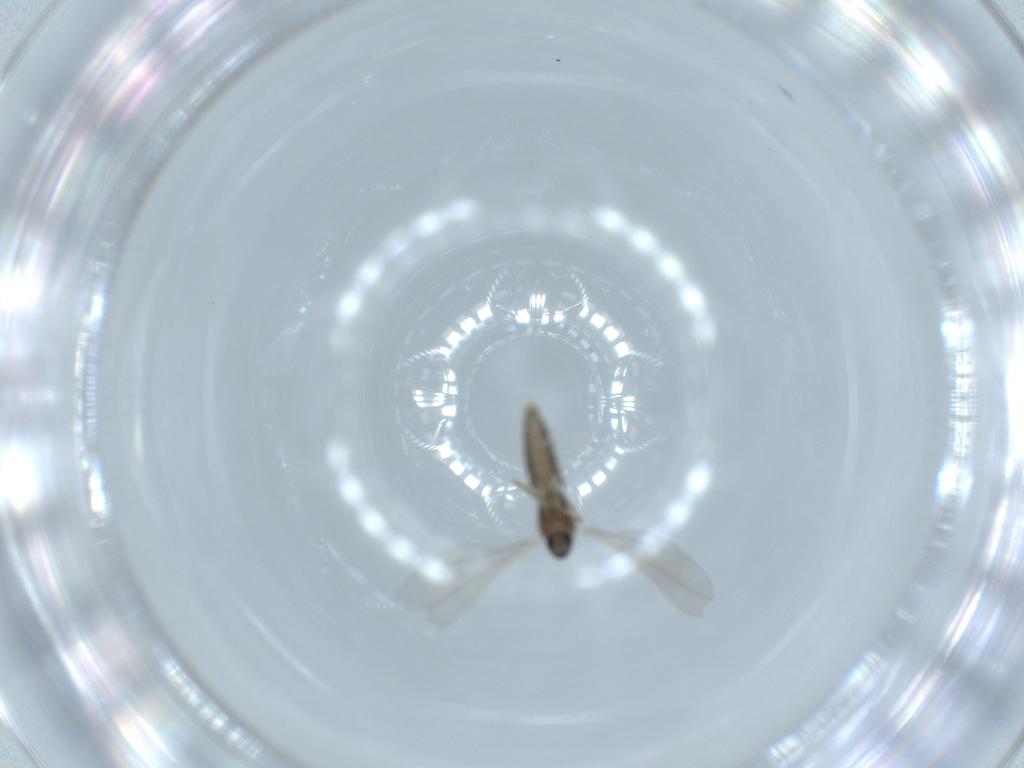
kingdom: Animalia
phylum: Arthropoda
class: Insecta
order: Diptera
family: Cecidomyiidae
